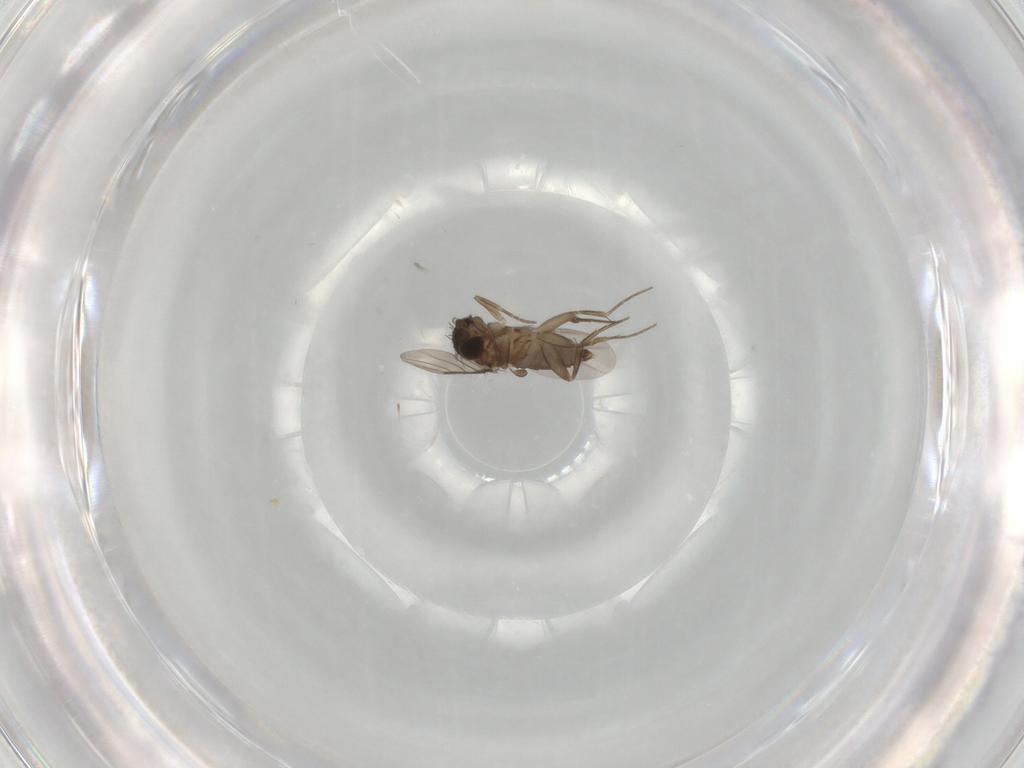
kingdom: Animalia
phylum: Arthropoda
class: Insecta
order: Diptera
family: Phoridae
